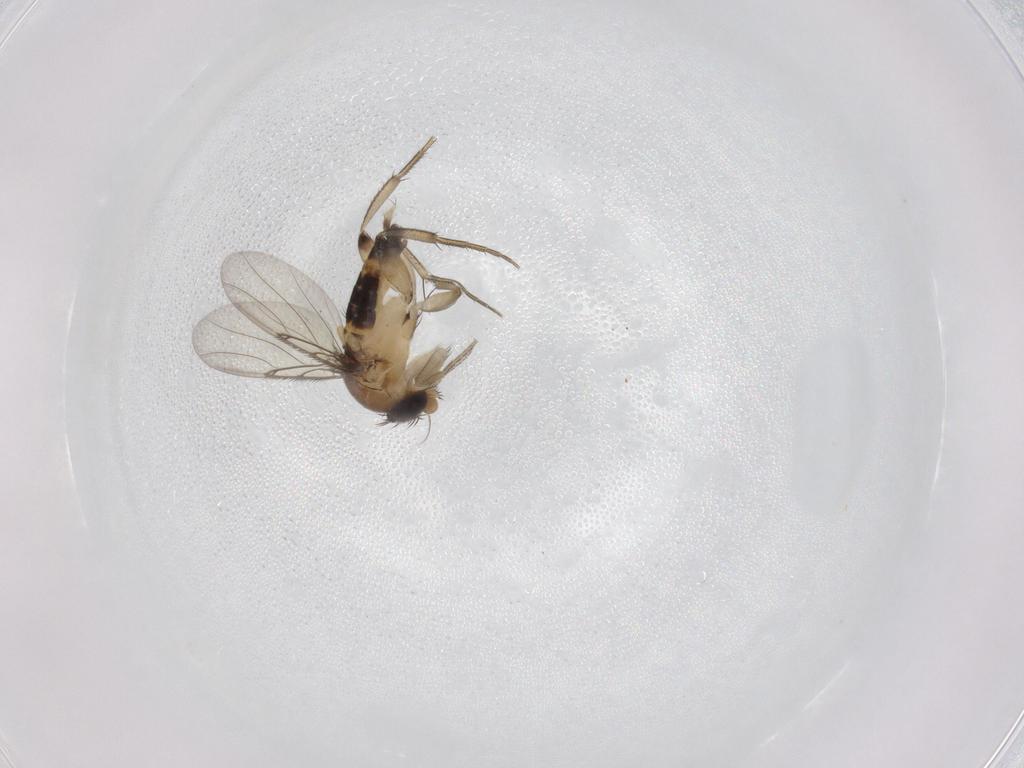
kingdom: Animalia
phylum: Arthropoda
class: Insecta
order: Diptera
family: Phoridae
